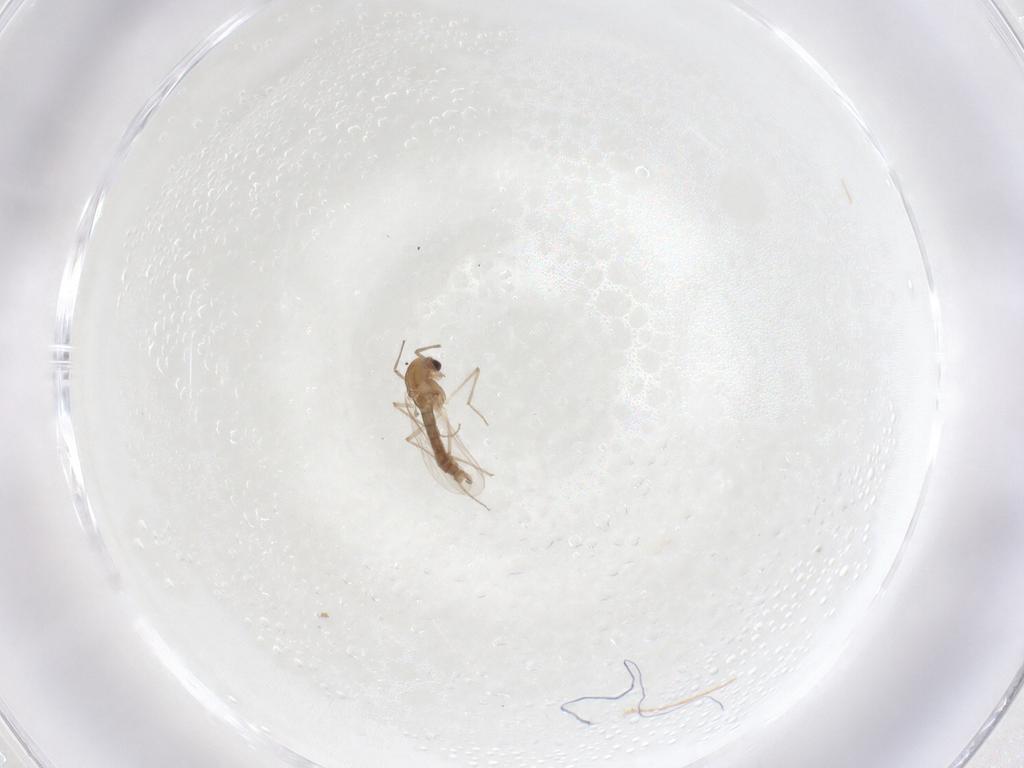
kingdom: Animalia
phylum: Arthropoda
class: Insecta
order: Diptera
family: Chironomidae
